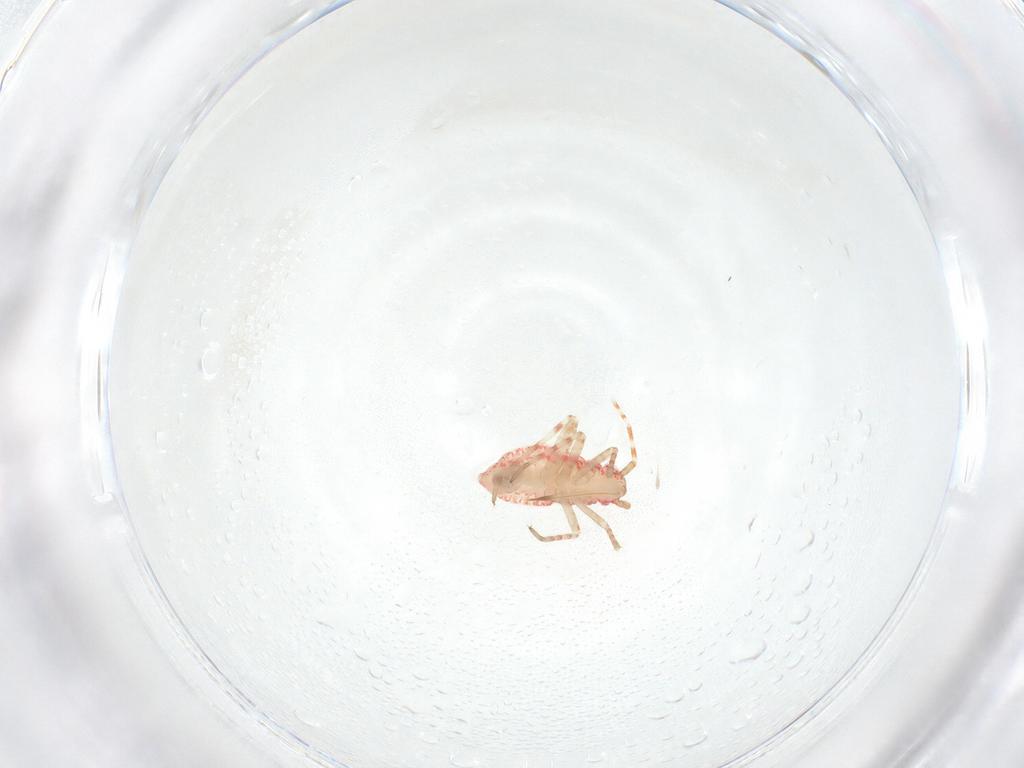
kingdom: Animalia
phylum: Arthropoda
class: Insecta
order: Hemiptera
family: Miridae
